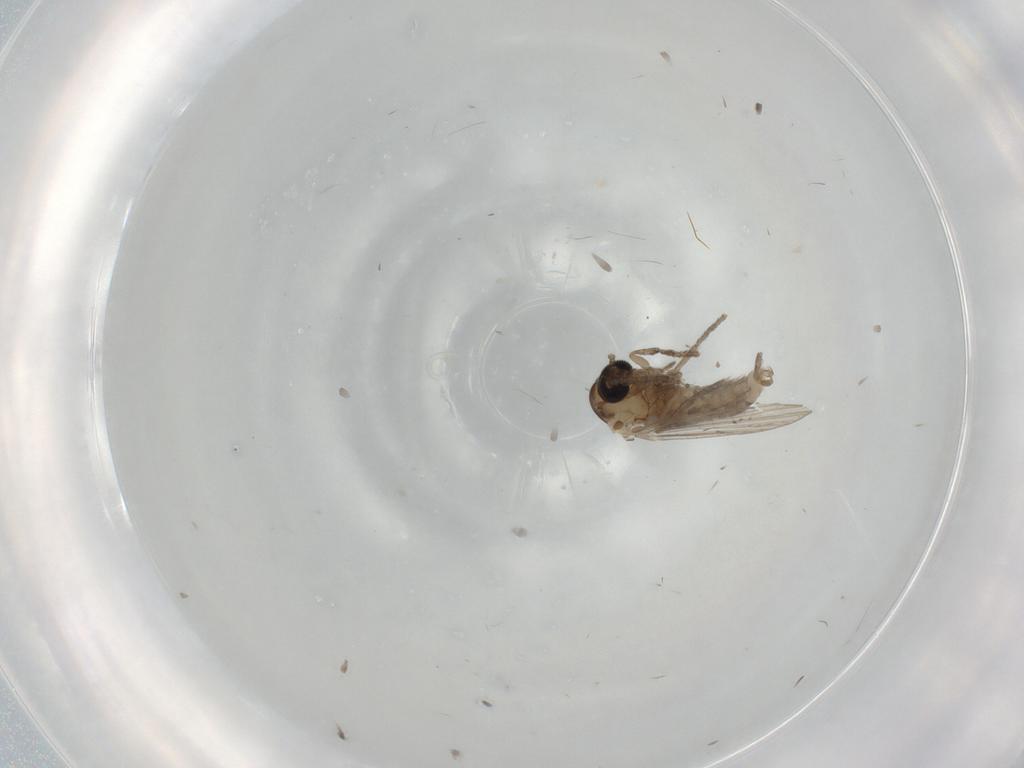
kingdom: Animalia
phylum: Arthropoda
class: Insecta
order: Diptera
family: Psychodidae
